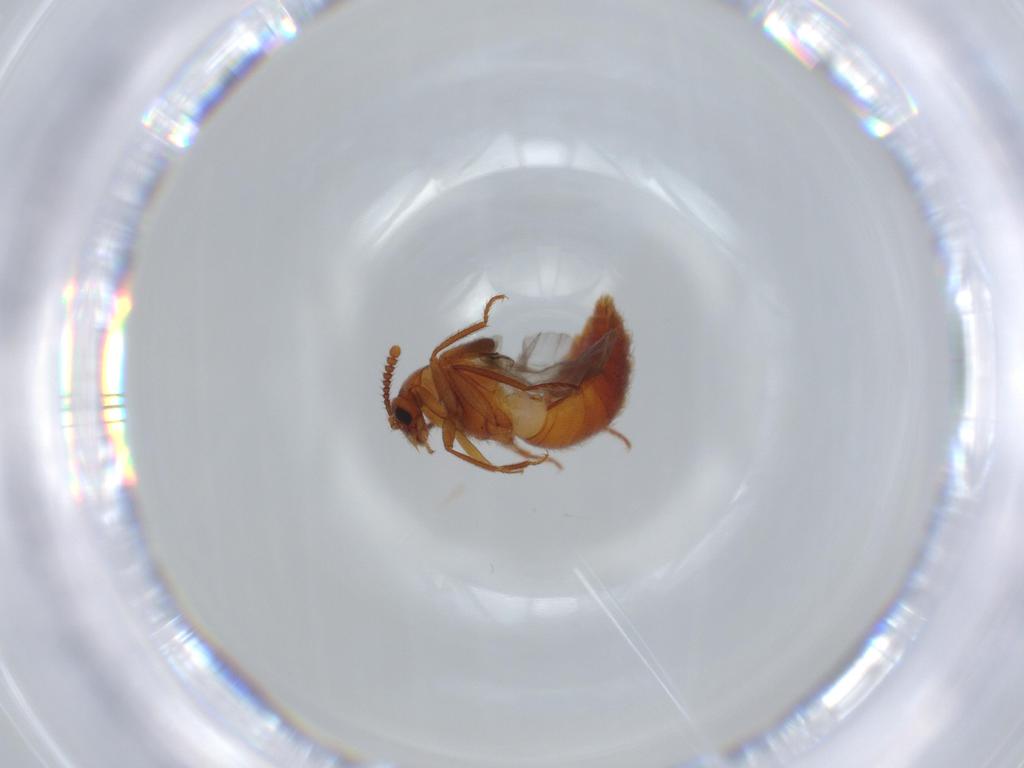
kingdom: Animalia
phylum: Arthropoda
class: Insecta
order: Coleoptera
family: Staphylinidae
